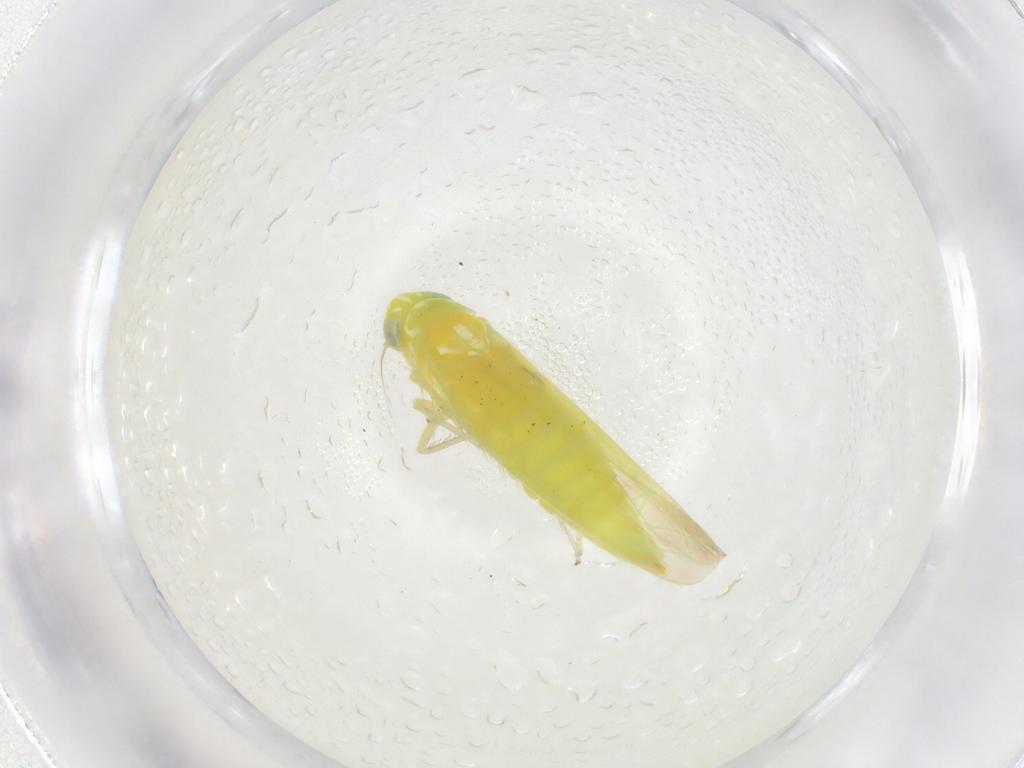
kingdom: Animalia
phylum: Arthropoda
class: Insecta
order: Hemiptera
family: Cicadellidae
